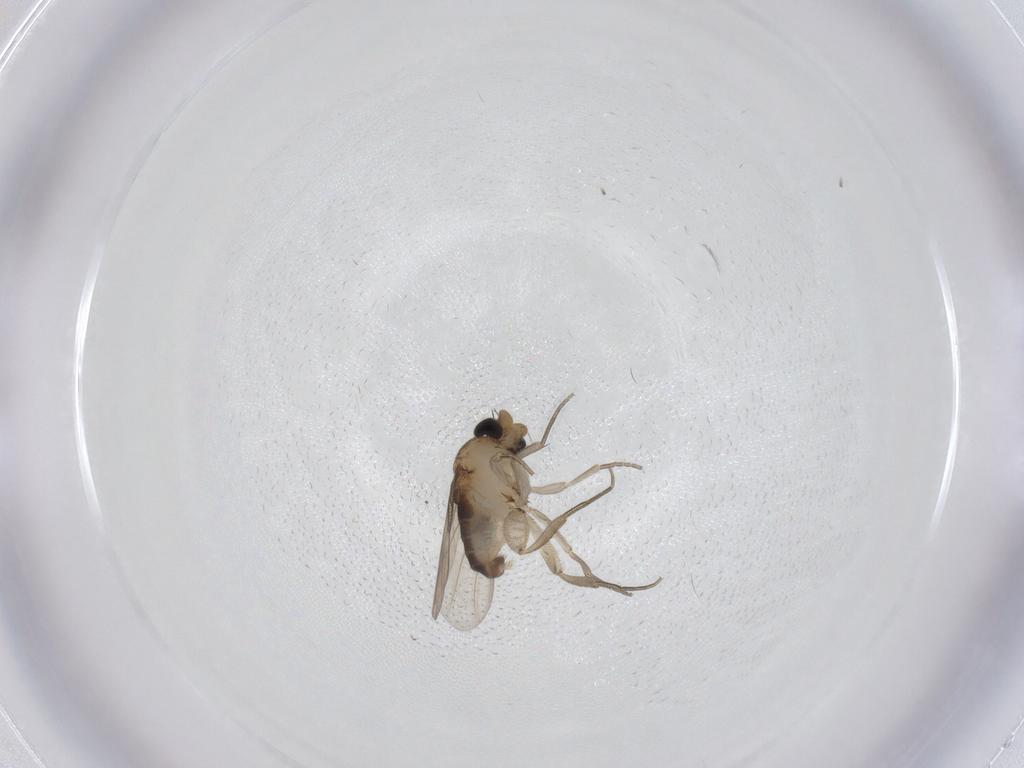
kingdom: Animalia
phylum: Arthropoda
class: Insecta
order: Diptera
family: Phoridae
